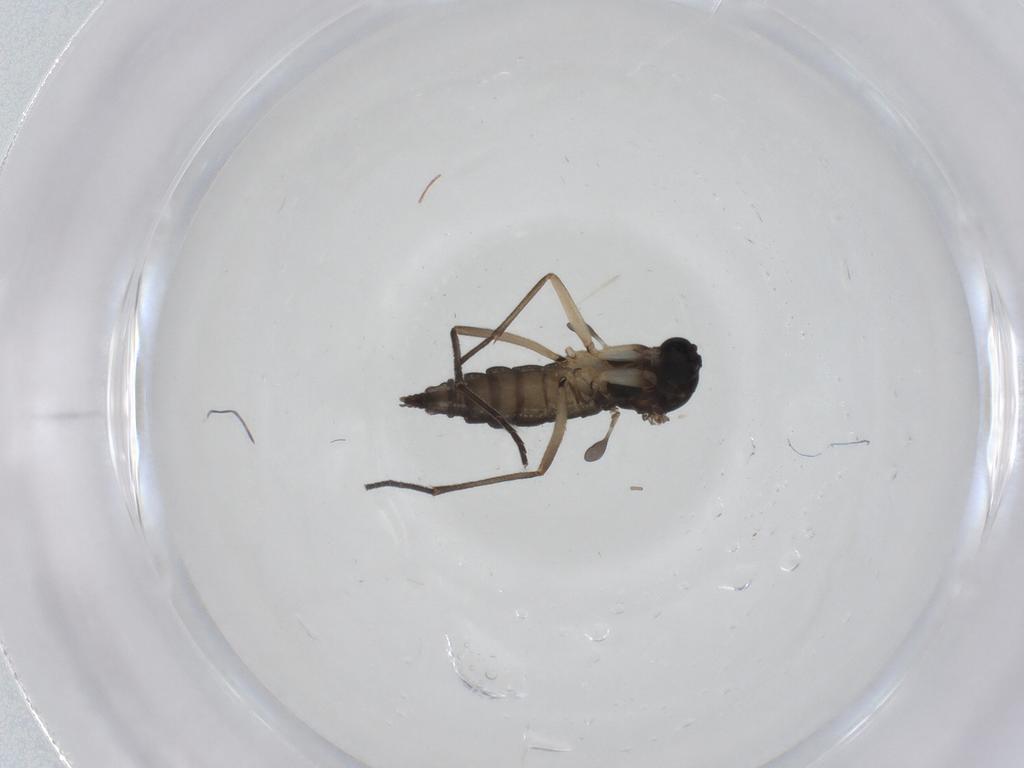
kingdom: Animalia
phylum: Arthropoda
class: Insecta
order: Diptera
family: Sciaridae
